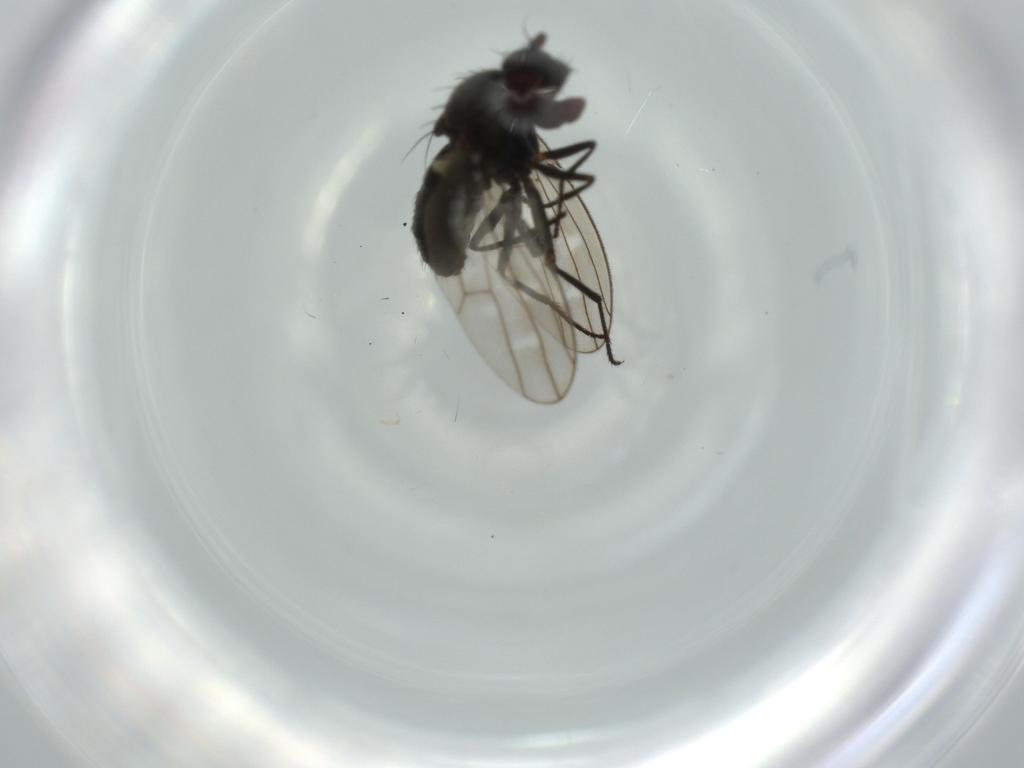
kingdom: Animalia
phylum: Arthropoda
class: Insecta
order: Diptera
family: Ephydridae
